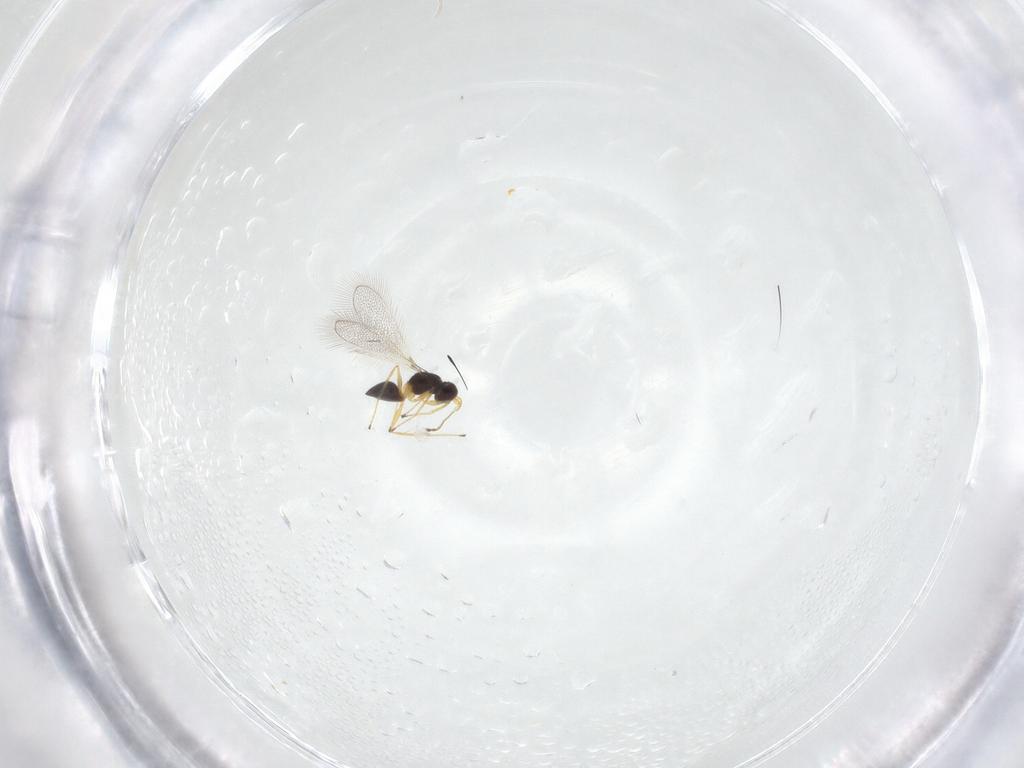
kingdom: Animalia
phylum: Arthropoda
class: Insecta
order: Hymenoptera
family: Mymaridae
